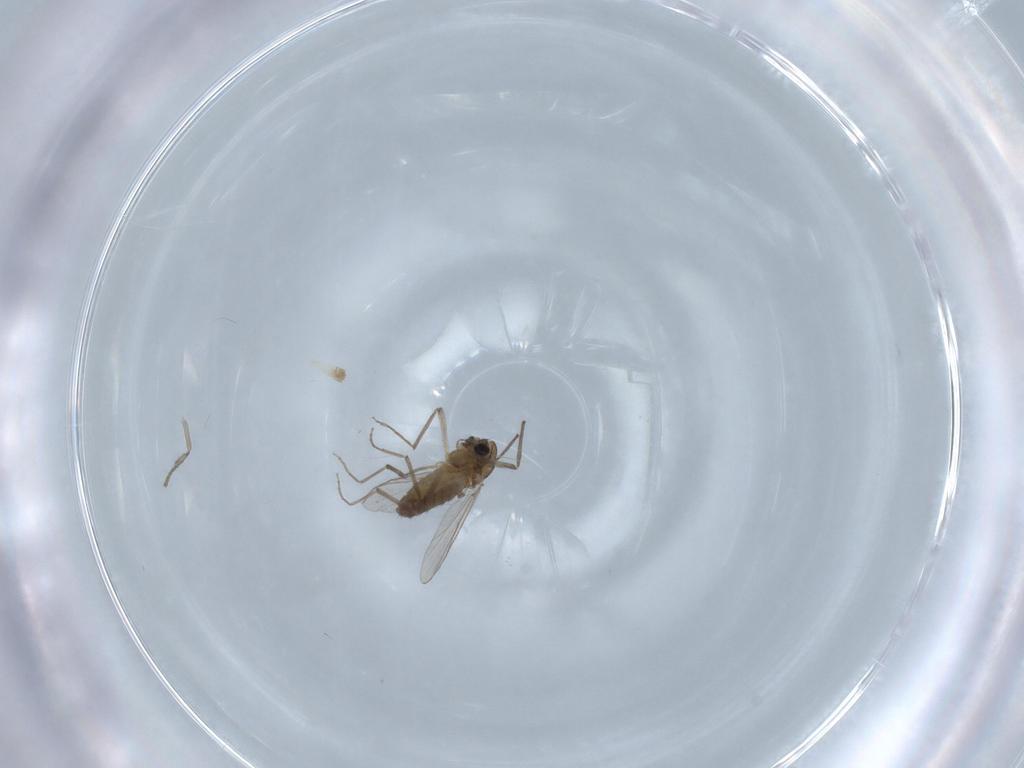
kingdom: Animalia
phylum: Arthropoda
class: Insecta
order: Diptera
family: Chironomidae
